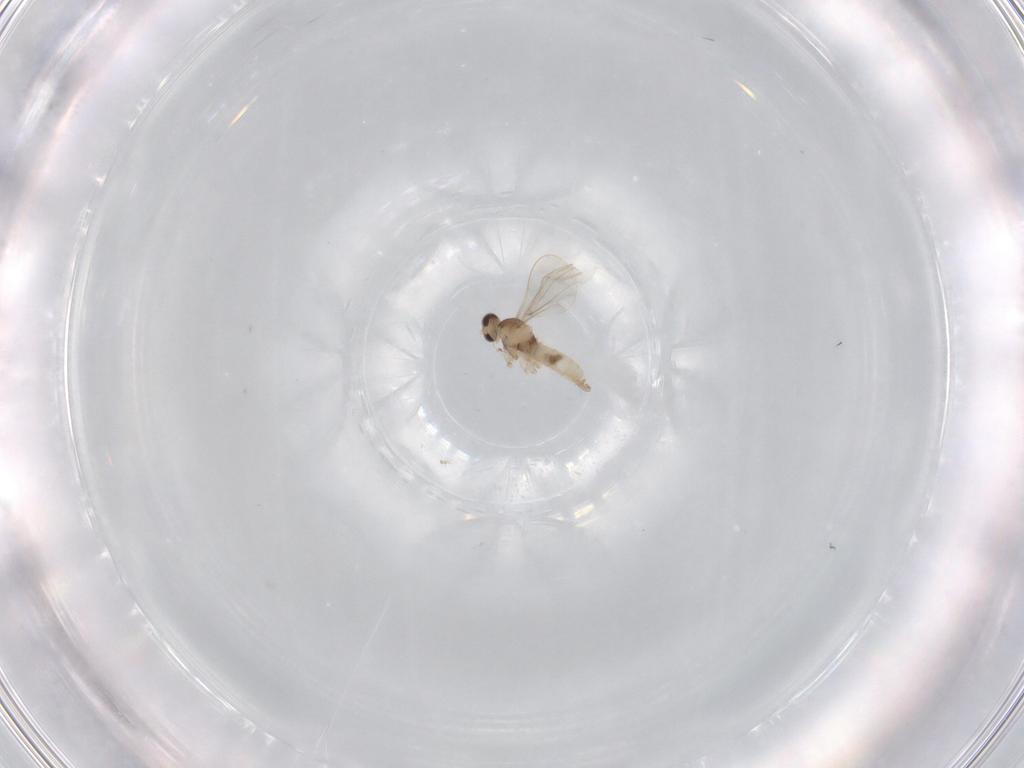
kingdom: Animalia
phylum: Arthropoda
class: Insecta
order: Diptera
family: Cecidomyiidae
